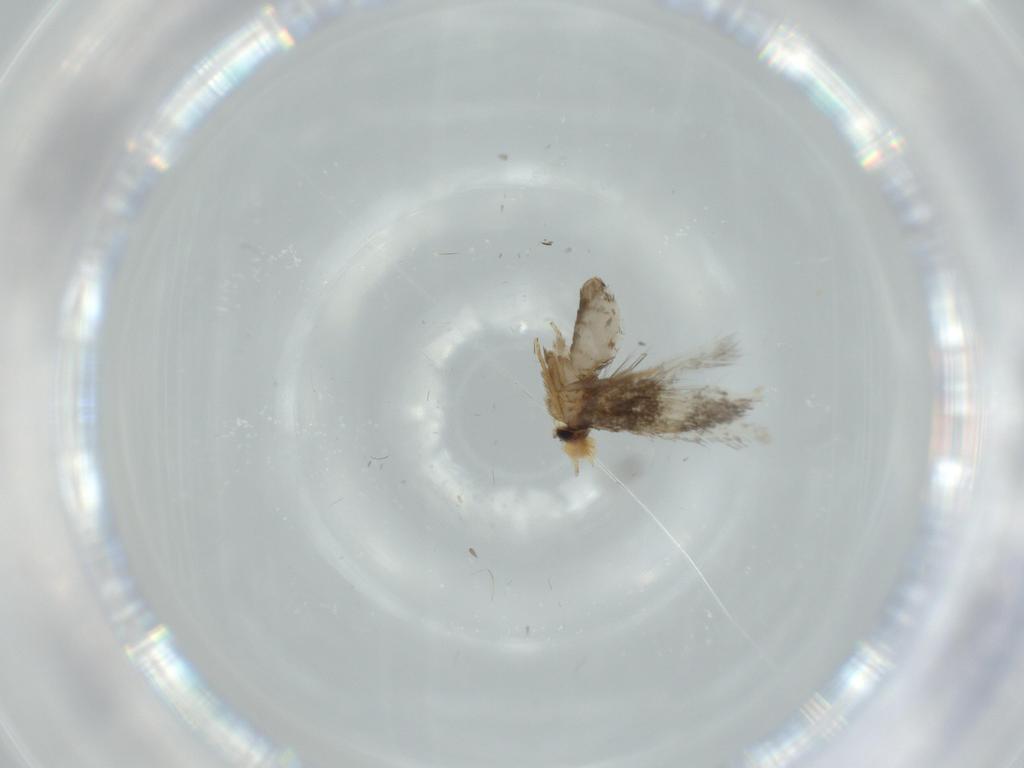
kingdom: Animalia
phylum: Arthropoda
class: Insecta
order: Lepidoptera
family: Nepticulidae
